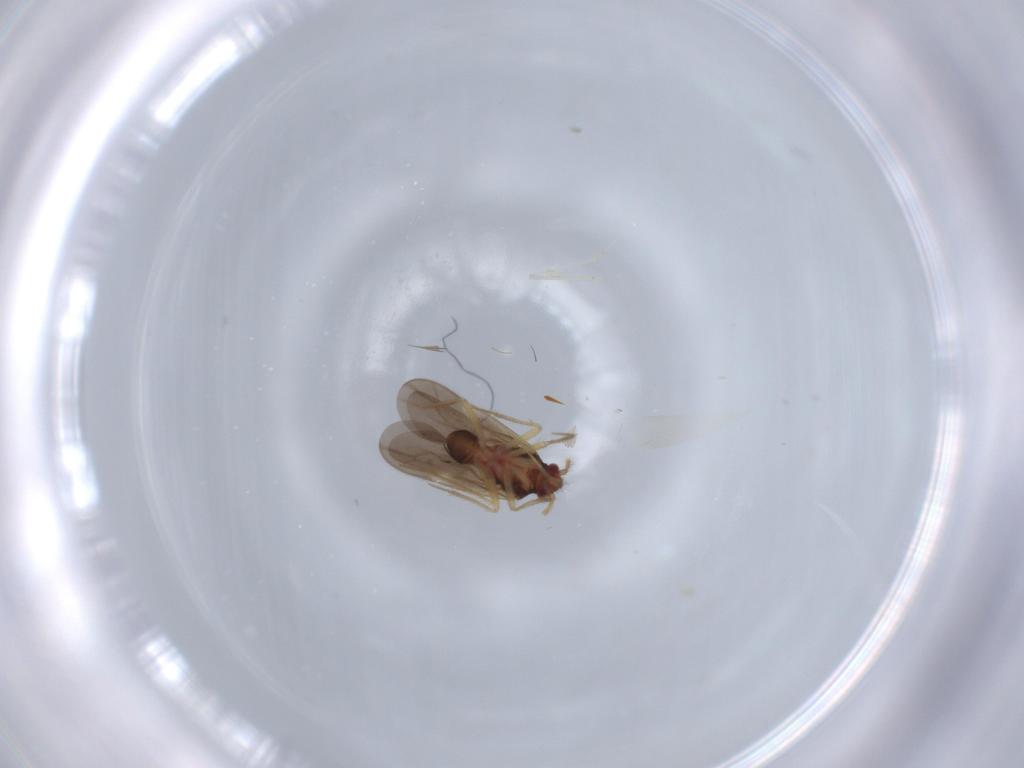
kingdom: Animalia
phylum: Arthropoda
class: Insecta
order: Hemiptera
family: Ceratocombidae
